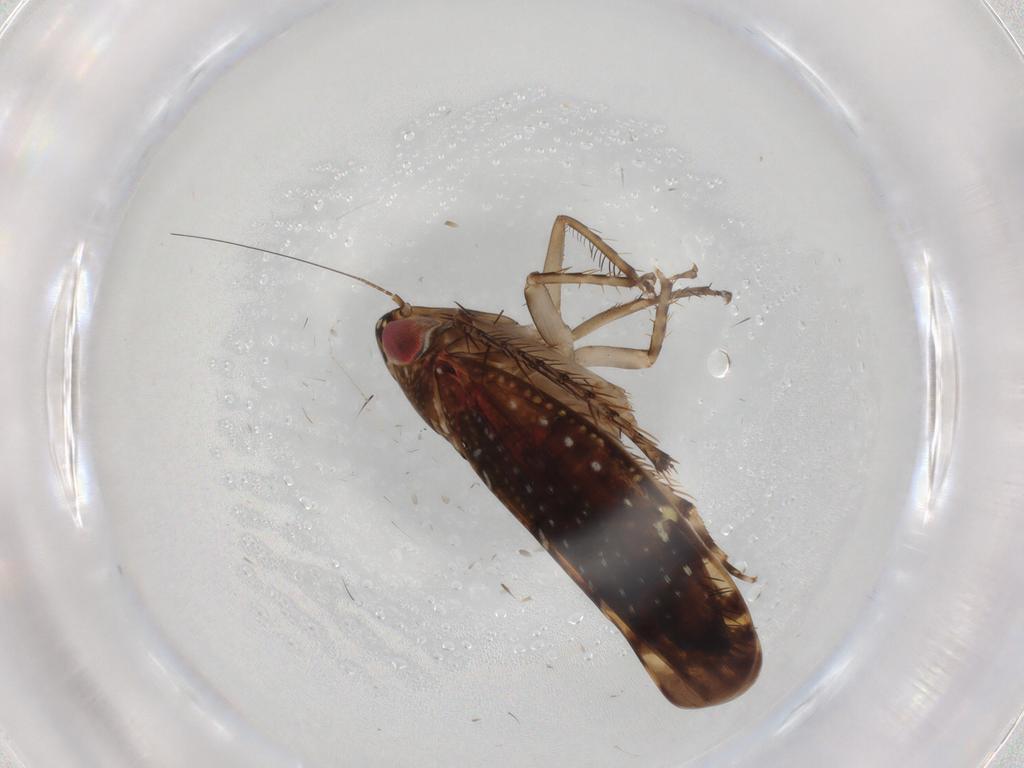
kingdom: Animalia
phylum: Arthropoda
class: Insecta
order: Hemiptera
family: Cicadellidae
